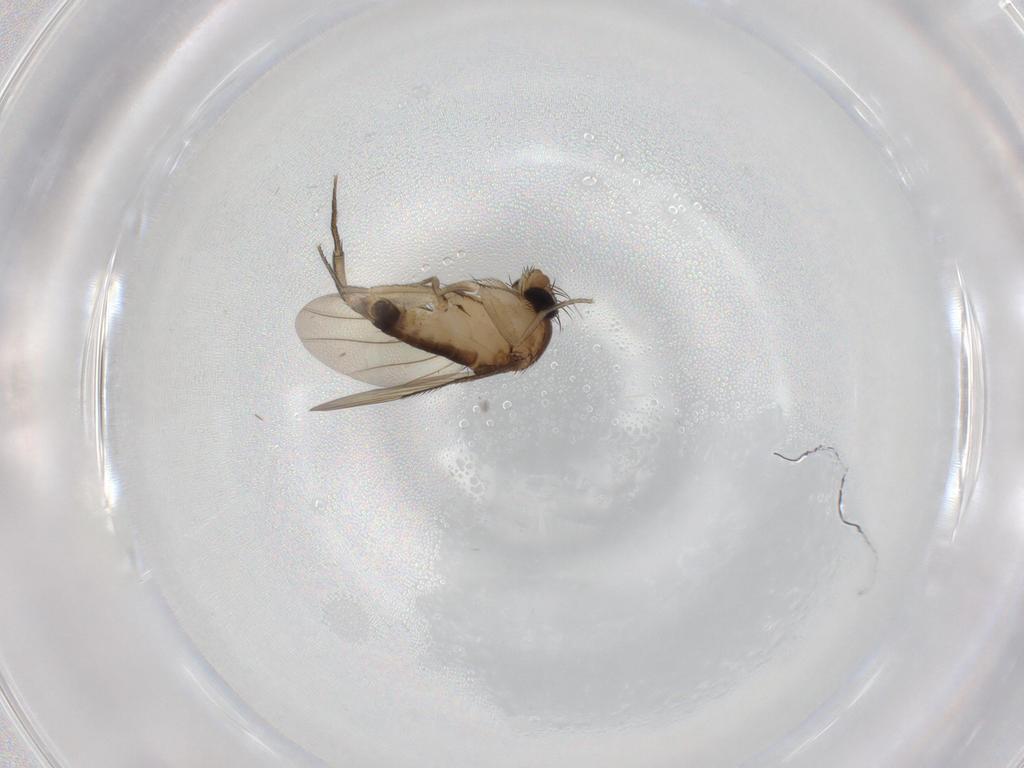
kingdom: Animalia
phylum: Arthropoda
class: Insecta
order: Diptera
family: Phoridae
